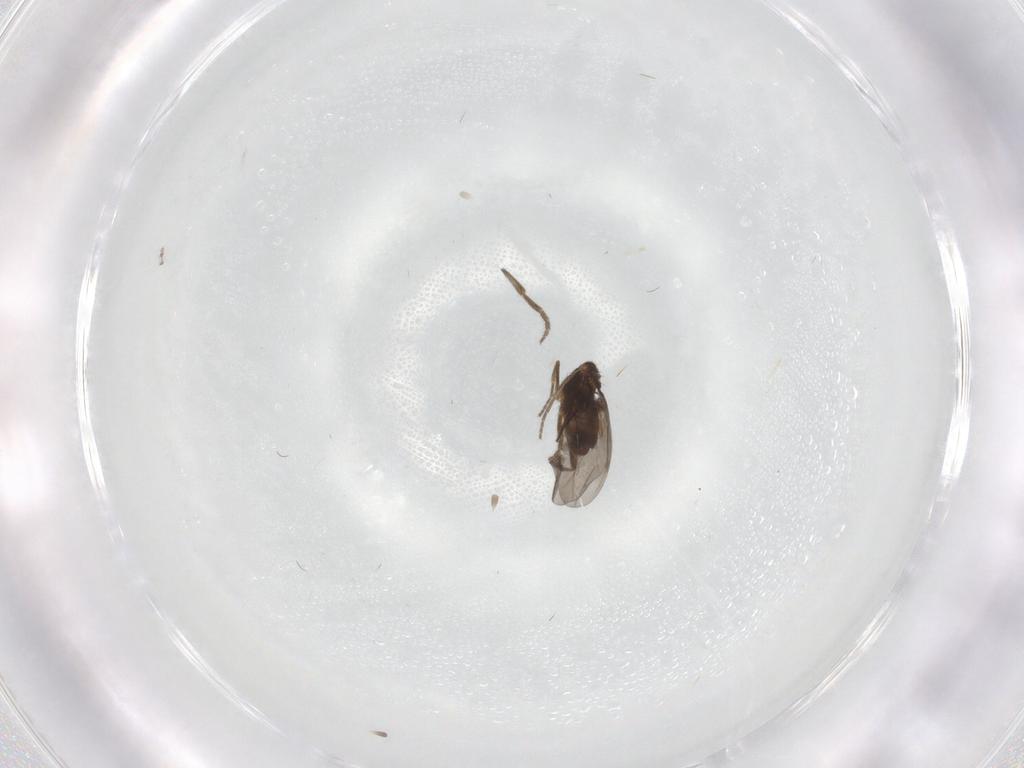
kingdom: Animalia
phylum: Arthropoda
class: Insecta
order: Diptera
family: Phoridae
